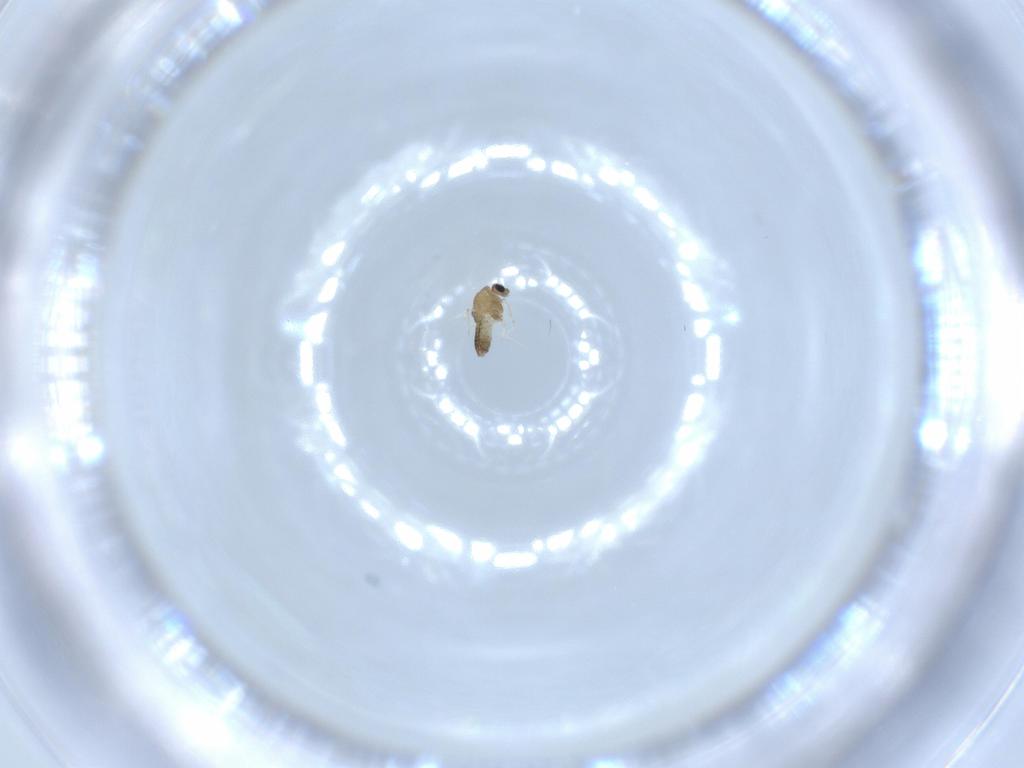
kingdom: Animalia
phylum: Arthropoda
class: Insecta
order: Diptera
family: Chironomidae
